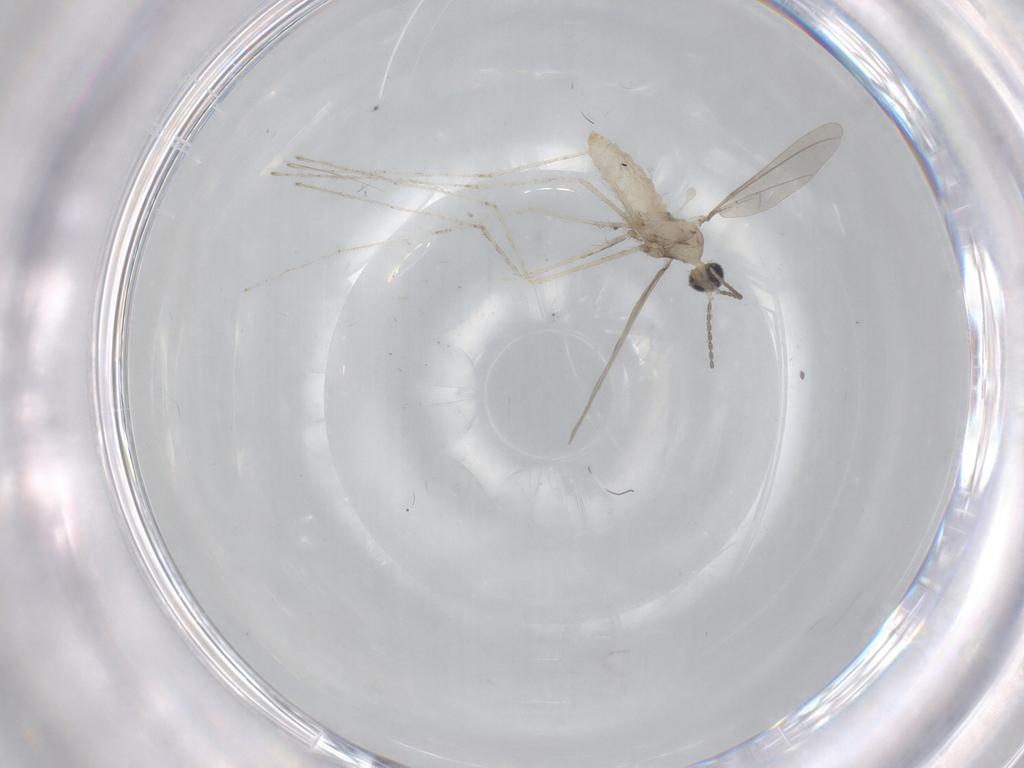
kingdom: Animalia
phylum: Arthropoda
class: Insecta
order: Diptera
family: Cecidomyiidae
